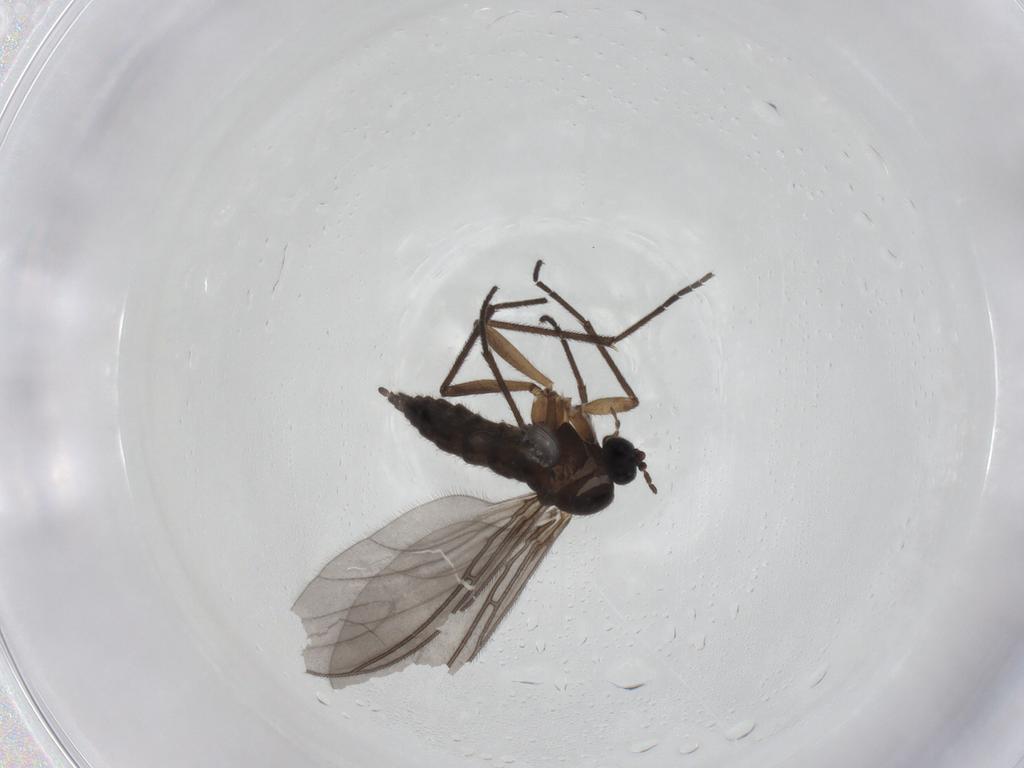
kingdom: Animalia
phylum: Arthropoda
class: Insecta
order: Diptera
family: Sciaridae
